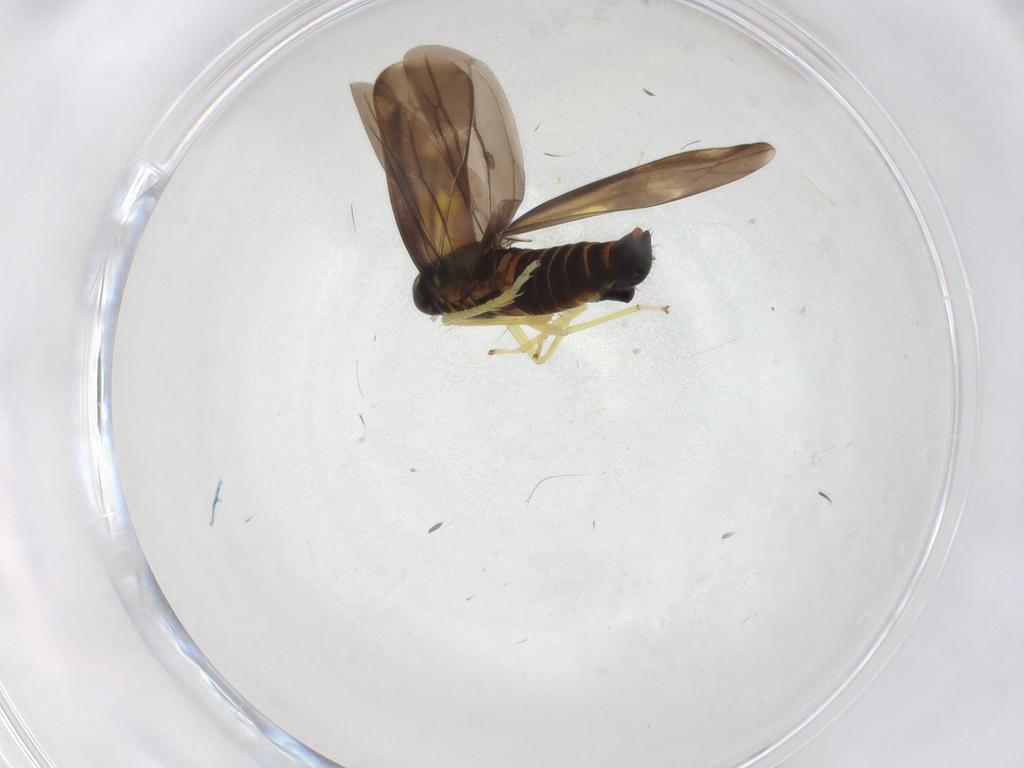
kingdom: Animalia
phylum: Arthropoda
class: Insecta
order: Hemiptera
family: Cicadellidae
